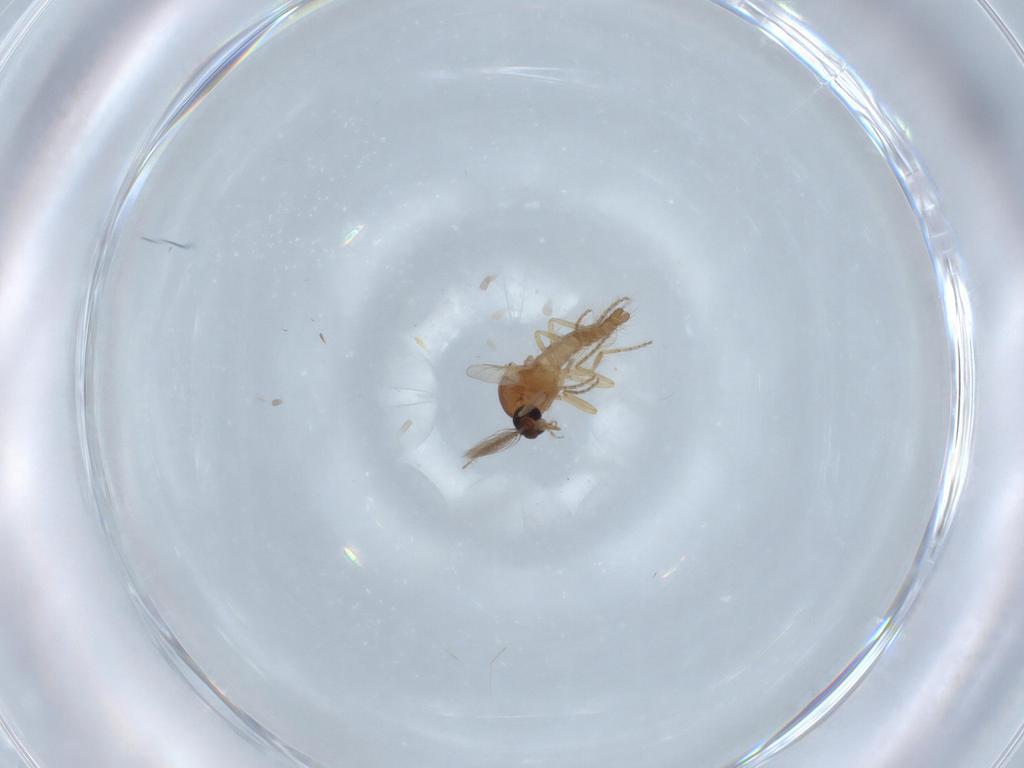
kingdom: Animalia
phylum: Arthropoda
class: Insecta
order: Diptera
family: Ceratopogonidae
